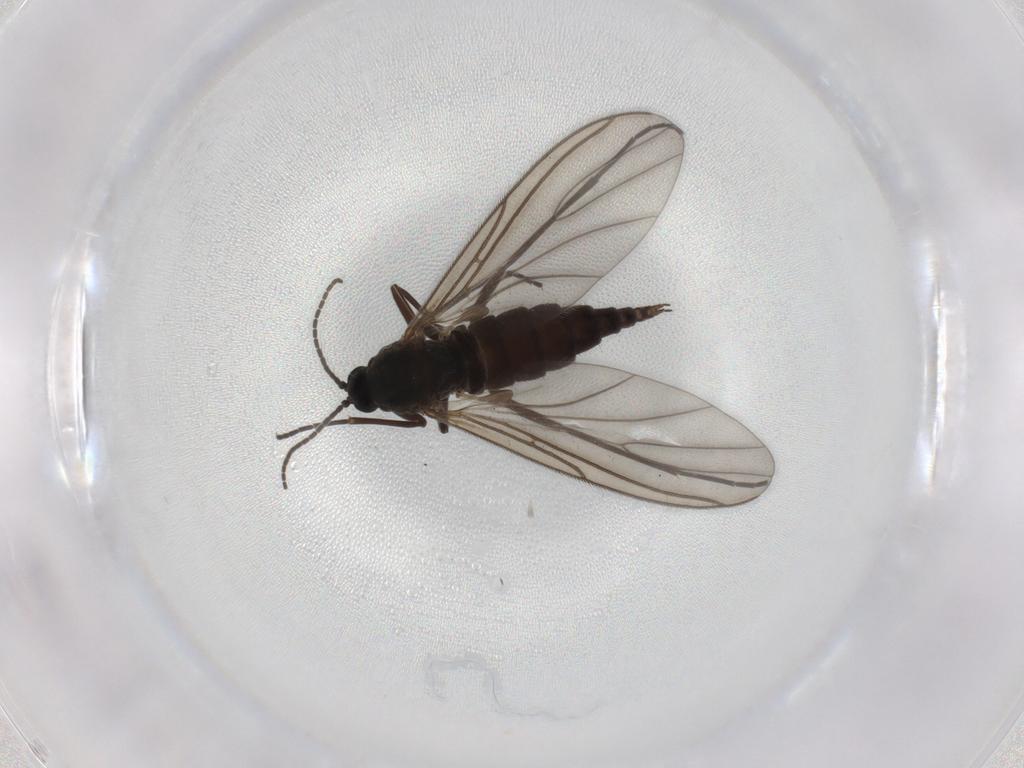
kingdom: Animalia
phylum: Arthropoda
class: Insecta
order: Diptera
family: Sciaridae
